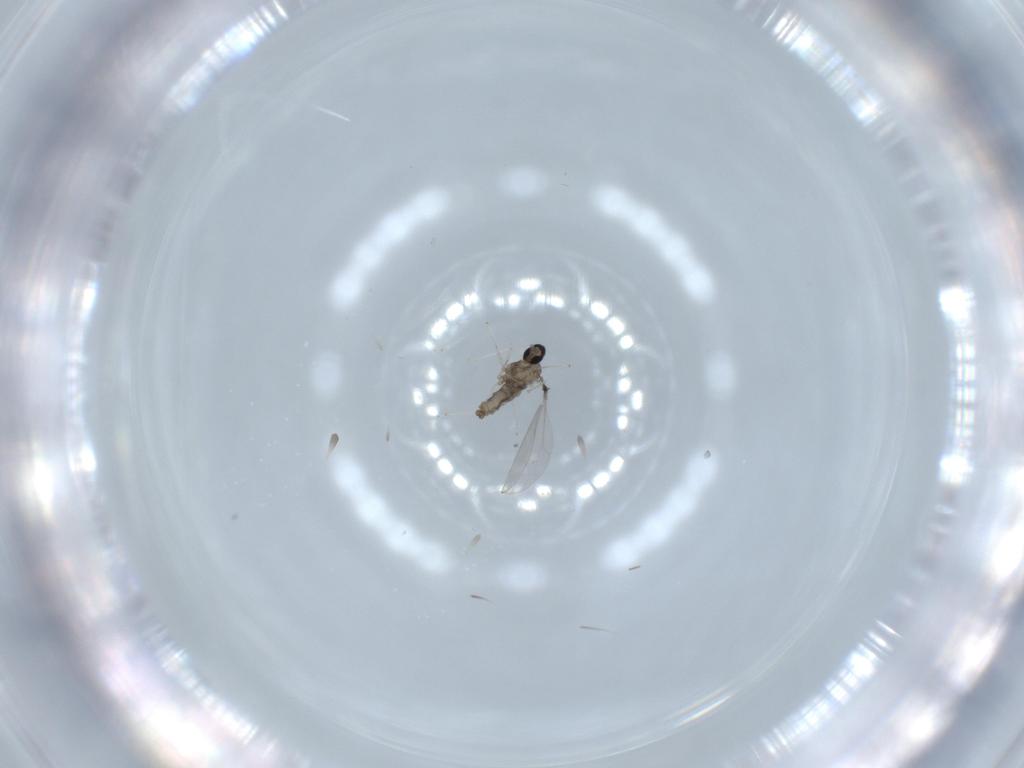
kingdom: Animalia
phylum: Arthropoda
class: Insecta
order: Diptera
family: Cecidomyiidae
